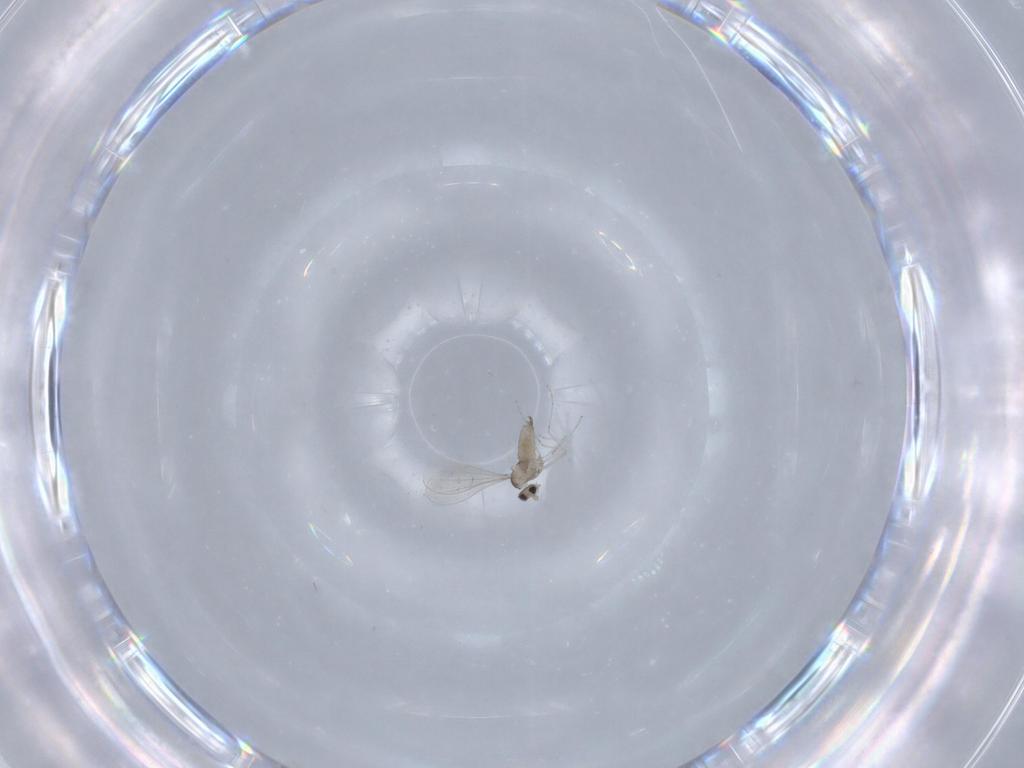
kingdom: Animalia
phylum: Arthropoda
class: Insecta
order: Diptera
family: Cecidomyiidae
